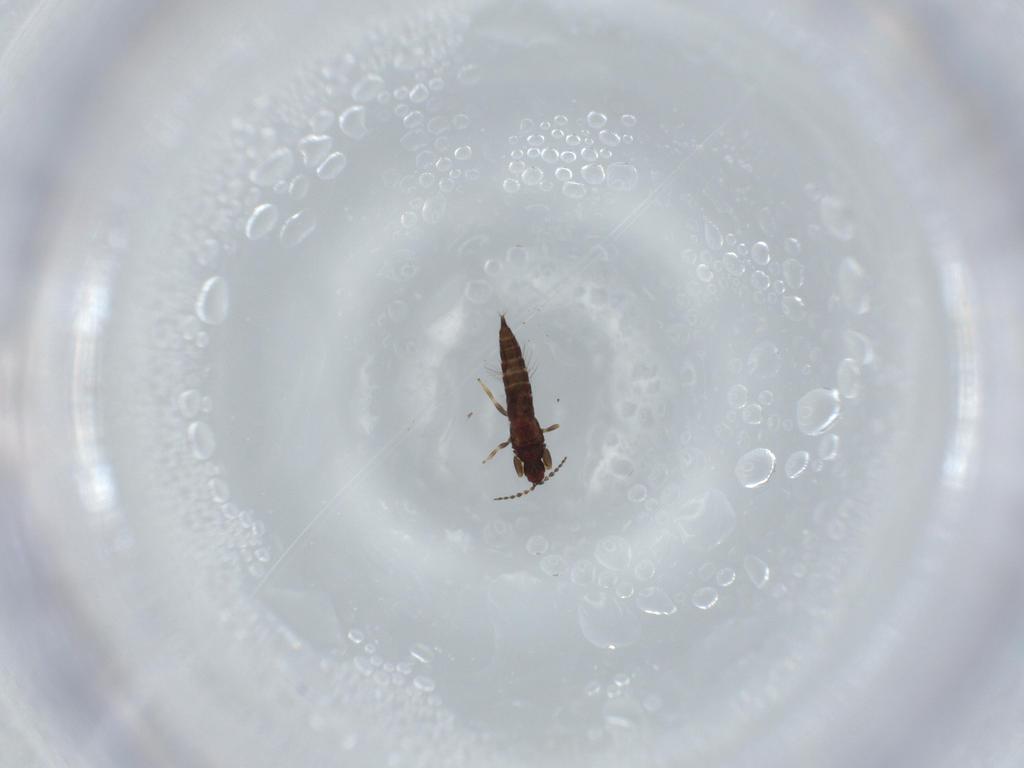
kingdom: Animalia
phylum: Arthropoda
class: Insecta
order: Thysanoptera
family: Phlaeothripidae
